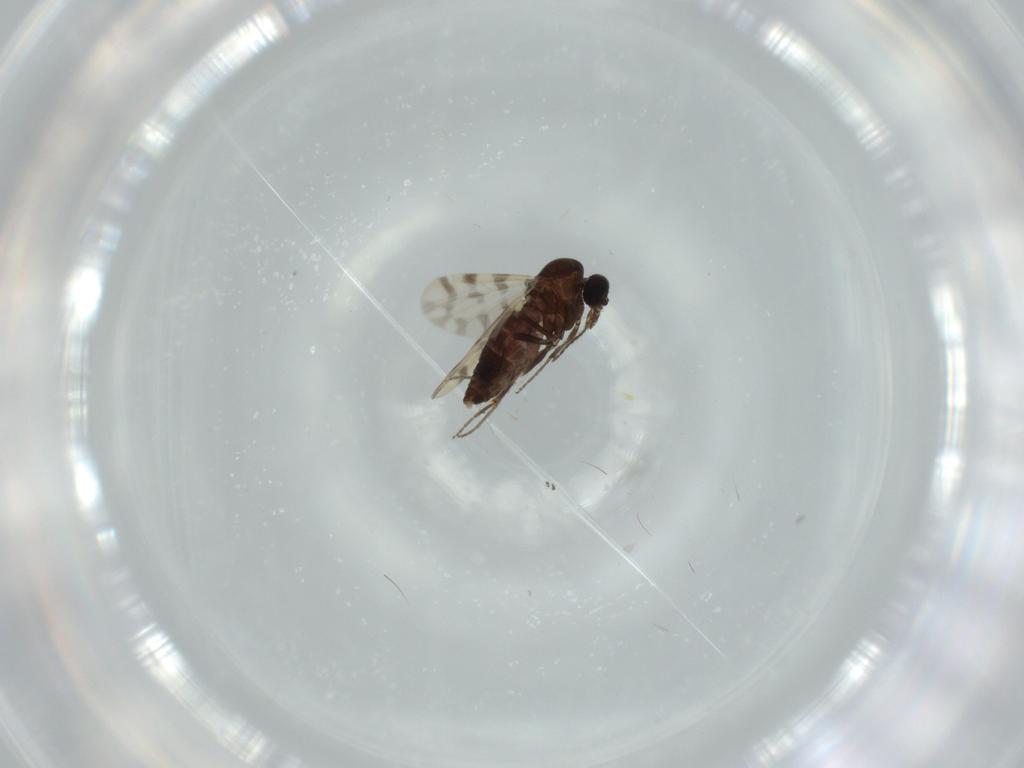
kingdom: Animalia
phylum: Arthropoda
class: Insecta
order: Diptera
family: Ceratopogonidae
